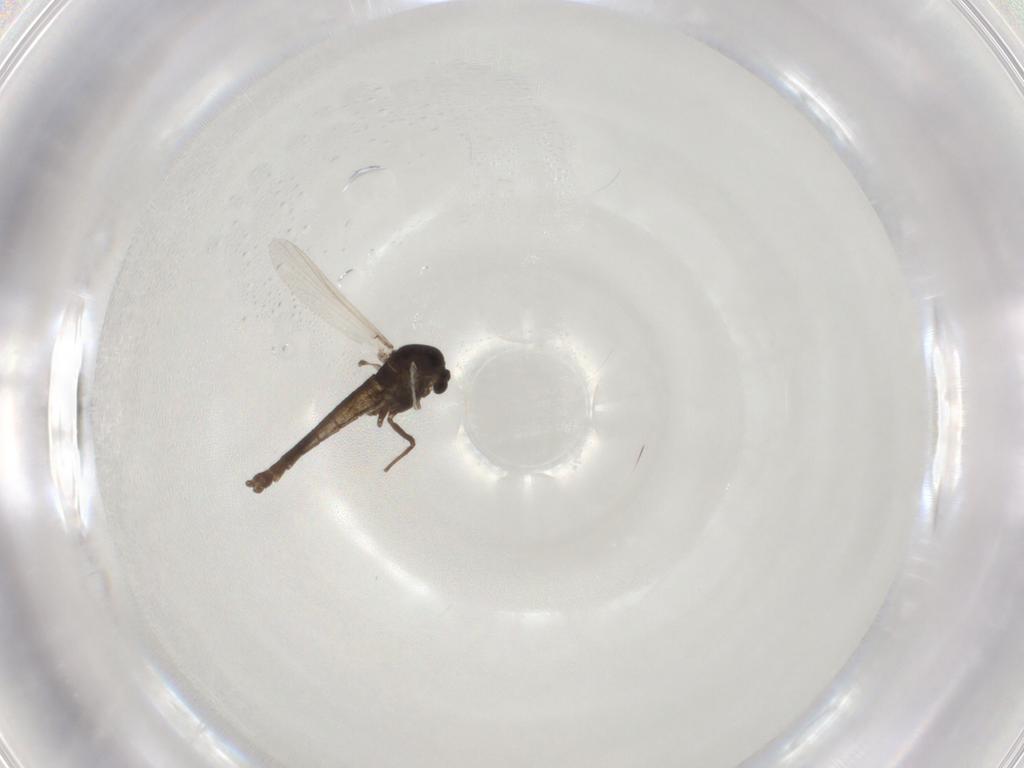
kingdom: Animalia
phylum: Arthropoda
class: Insecta
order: Diptera
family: Chironomidae
